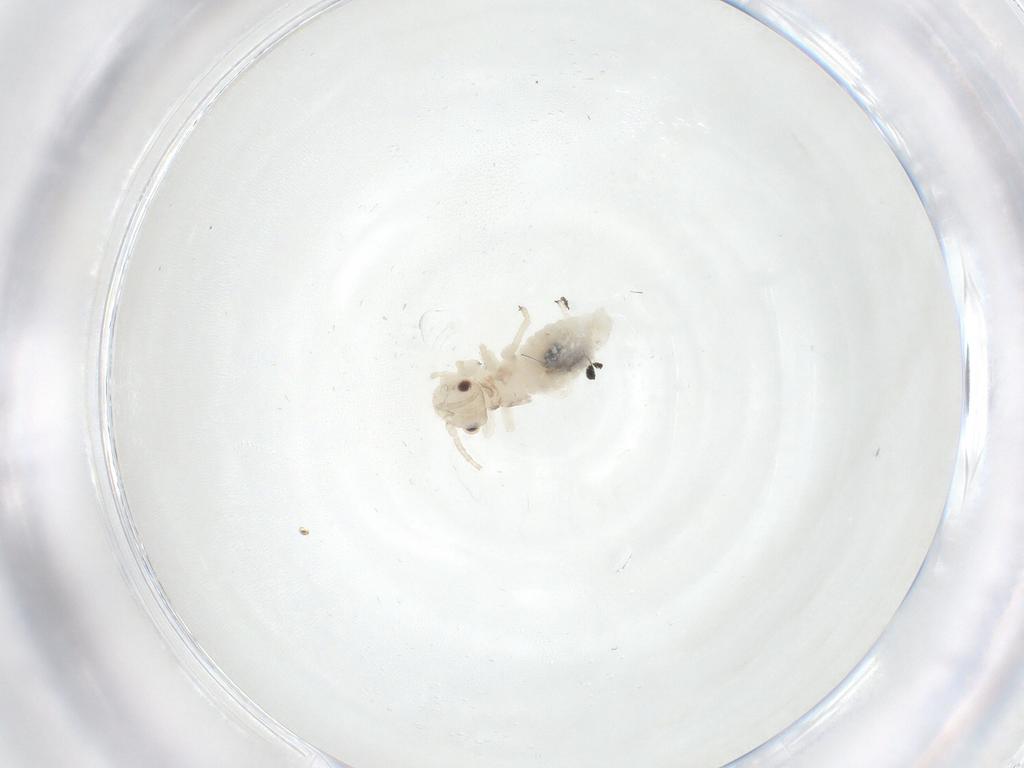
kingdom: Animalia
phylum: Arthropoda
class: Insecta
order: Psocodea
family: Amphipsocidae
